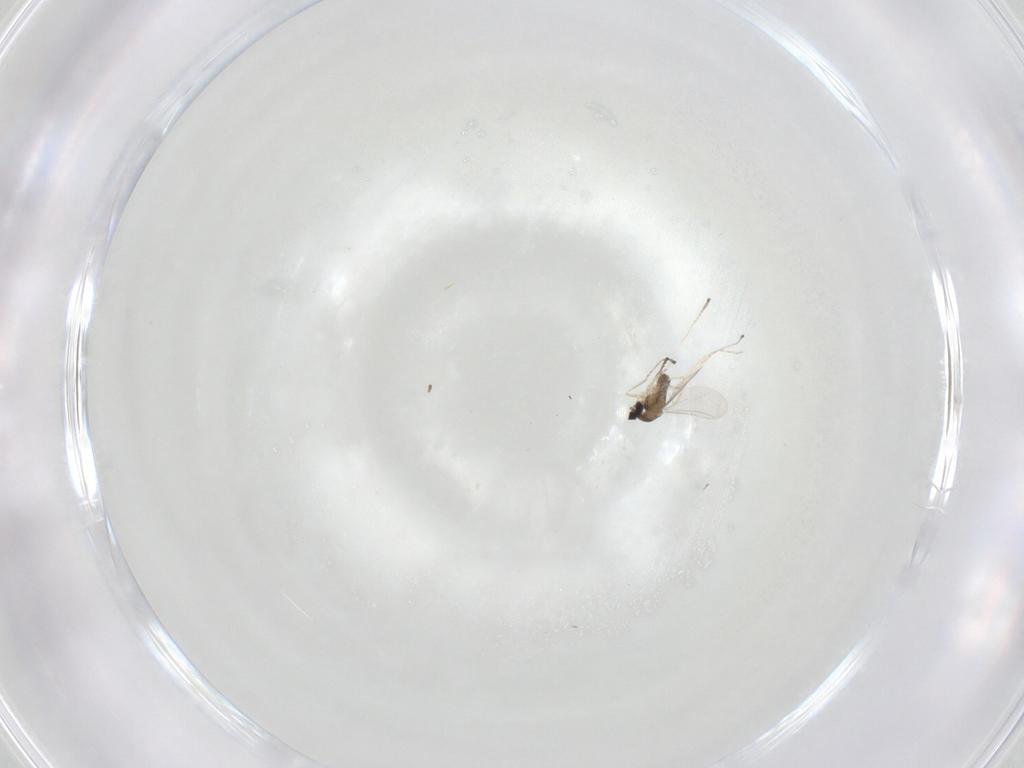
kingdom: Animalia
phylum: Arthropoda
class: Insecta
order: Diptera
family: Cecidomyiidae
